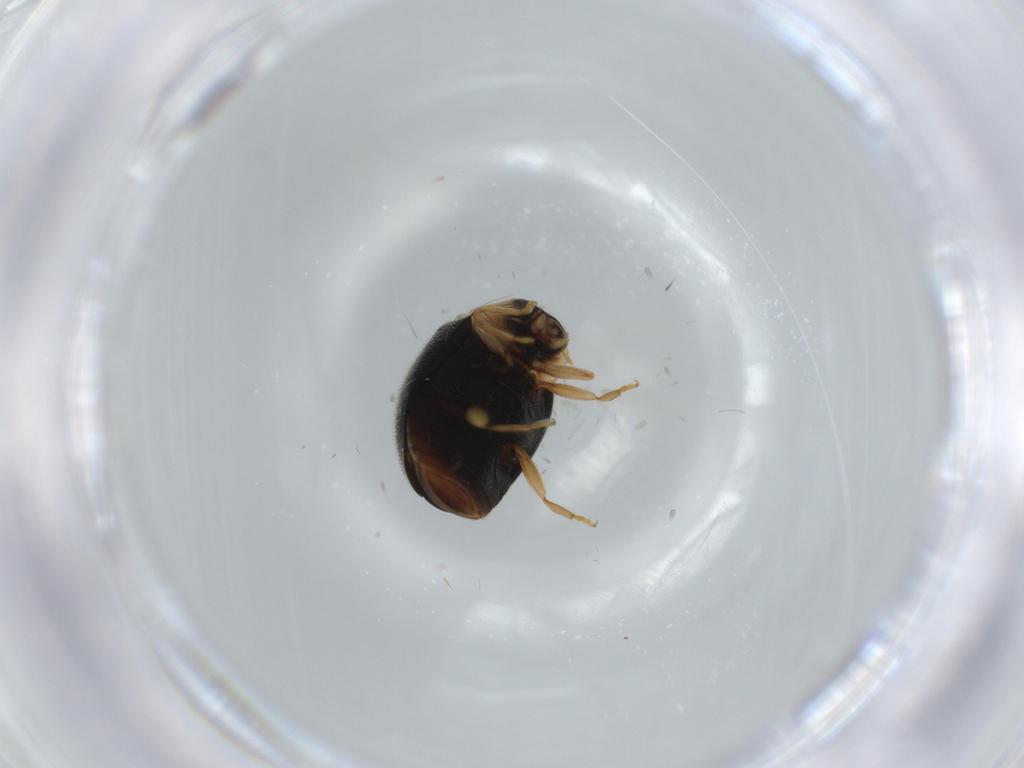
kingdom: Animalia
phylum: Arthropoda
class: Insecta
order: Coleoptera
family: Coccinellidae
